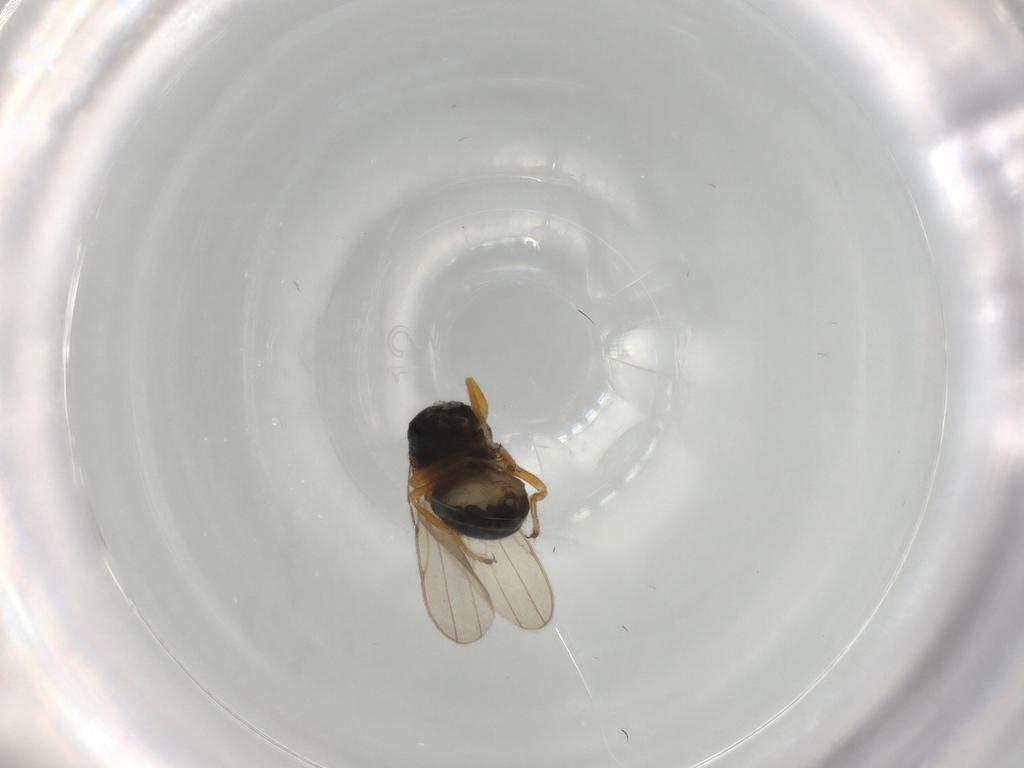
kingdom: Animalia
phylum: Arthropoda
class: Insecta
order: Diptera
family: Ephydridae
